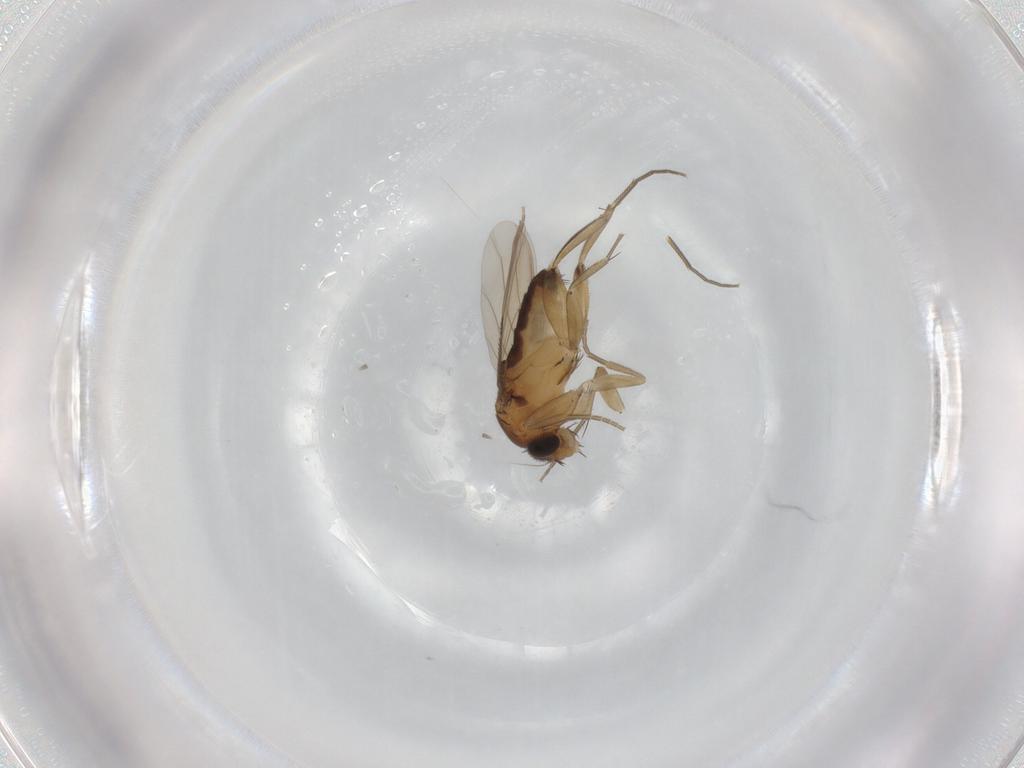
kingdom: Animalia
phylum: Arthropoda
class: Insecta
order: Diptera
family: Phoridae
